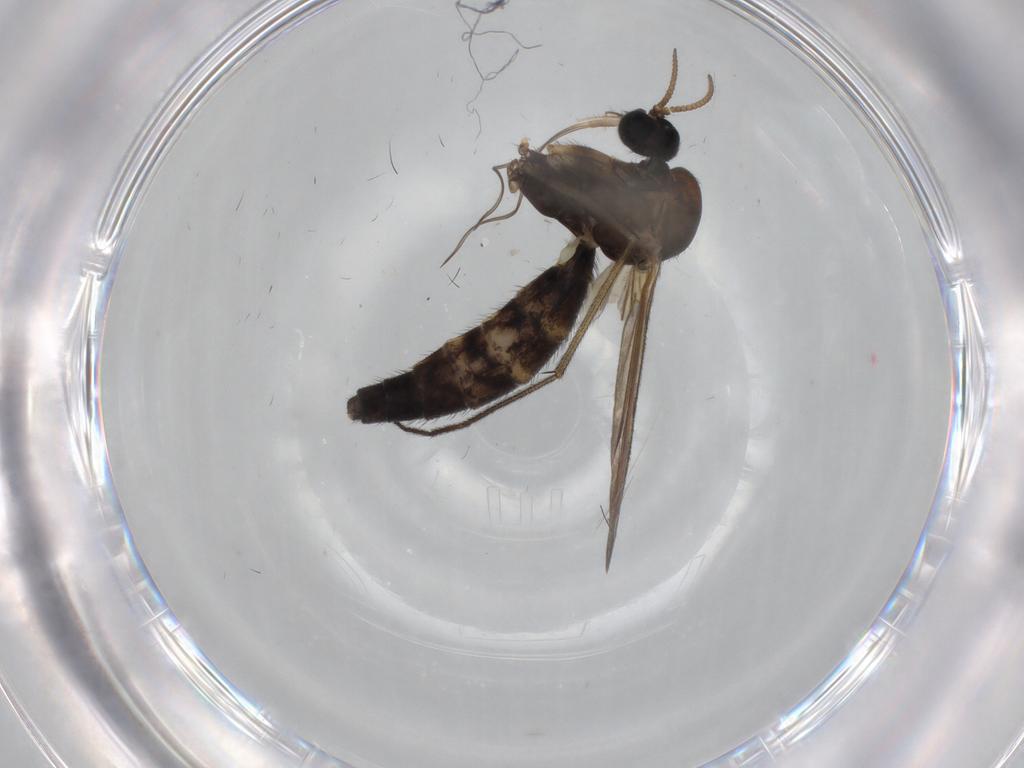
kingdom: Animalia
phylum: Arthropoda
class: Insecta
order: Diptera
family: Keroplatidae
